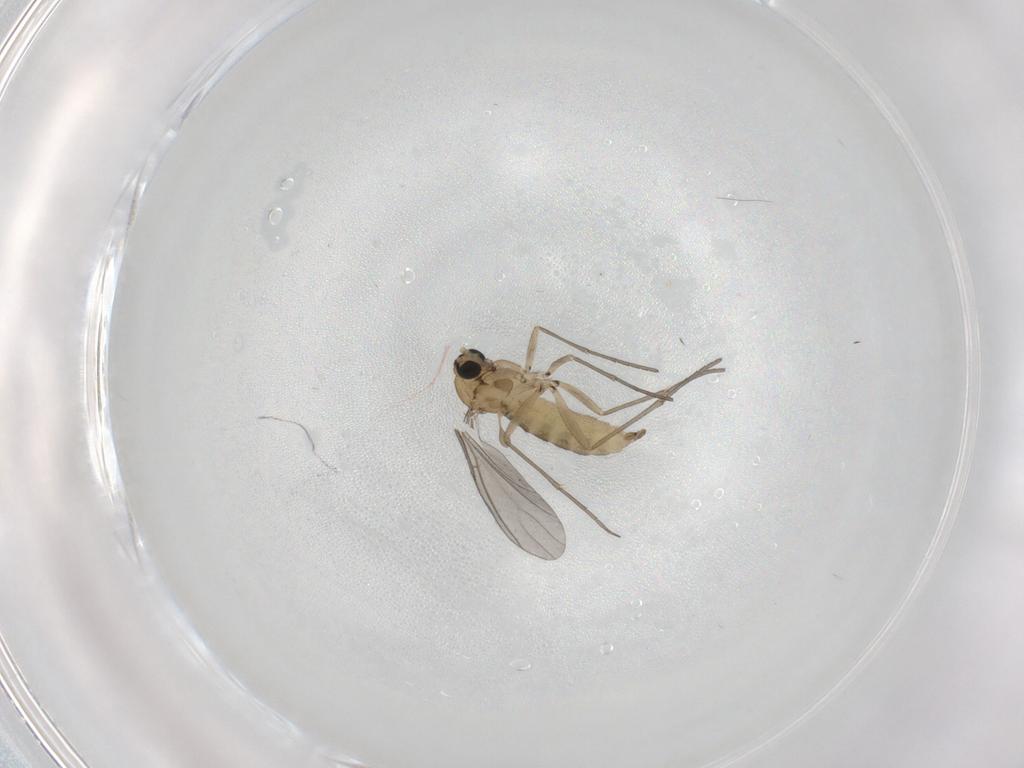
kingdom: Animalia
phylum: Arthropoda
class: Insecta
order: Diptera
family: Sciaridae
